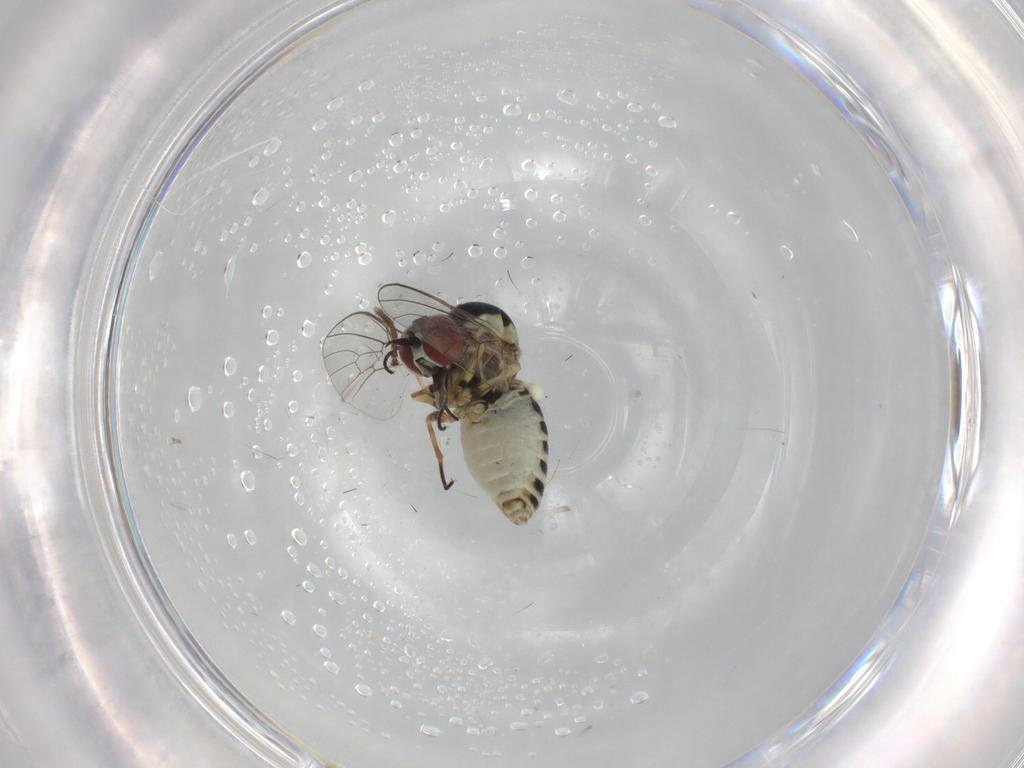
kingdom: Animalia
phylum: Arthropoda
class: Insecta
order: Diptera
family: Bombyliidae
